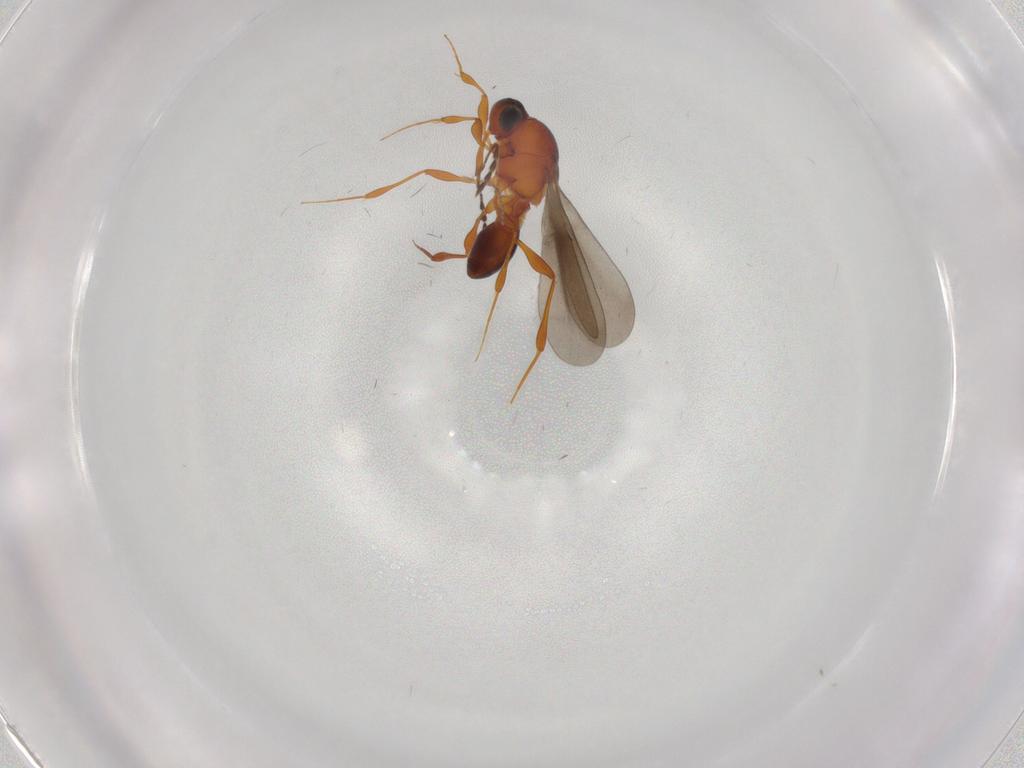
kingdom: Animalia
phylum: Arthropoda
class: Insecta
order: Hymenoptera
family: Platygastridae
